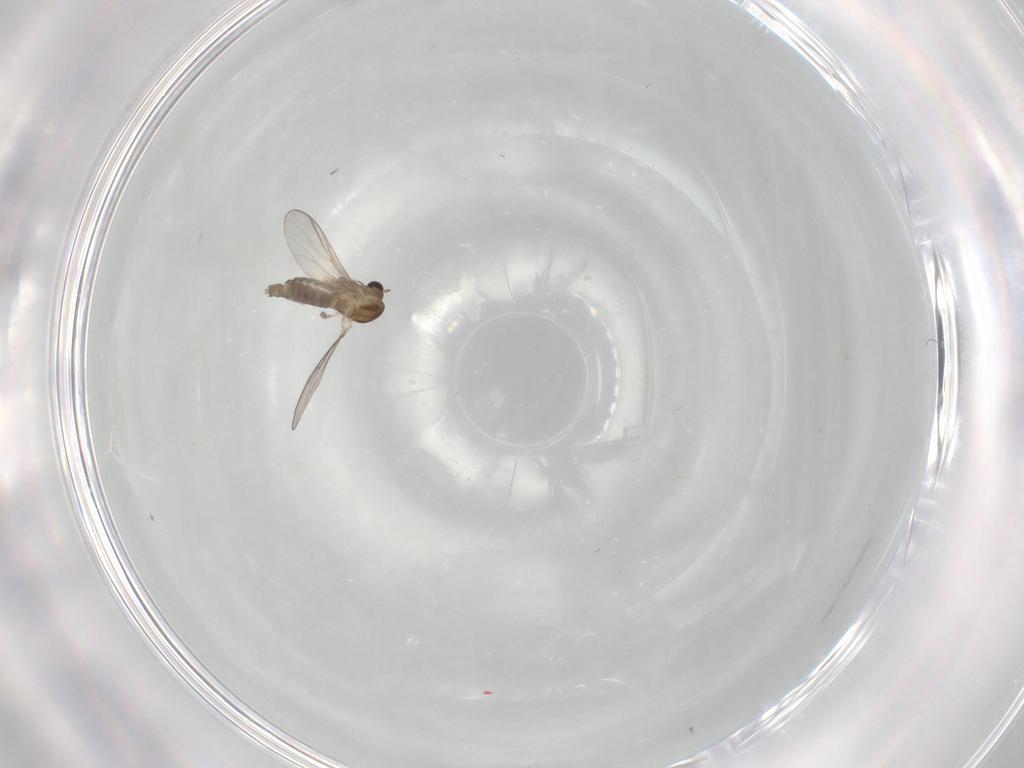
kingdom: Animalia
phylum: Arthropoda
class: Insecta
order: Diptera
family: Chironomidae
